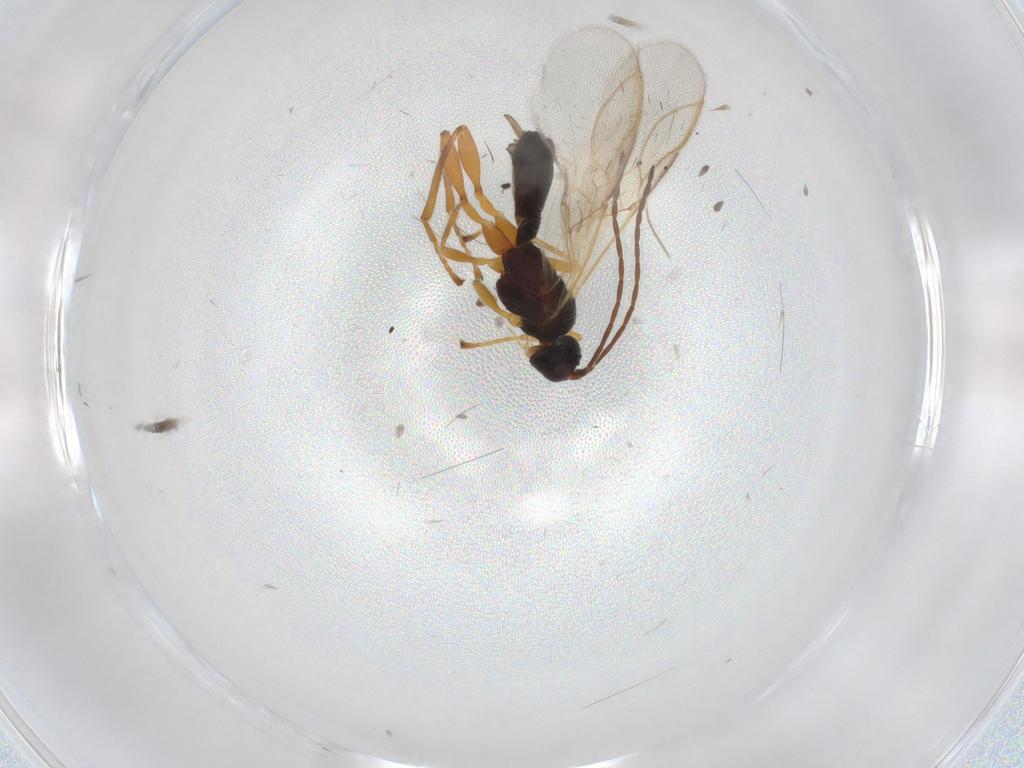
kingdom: Animalia
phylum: Arthropoda
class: Insecta
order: Hymenoptera
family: Braconidae
